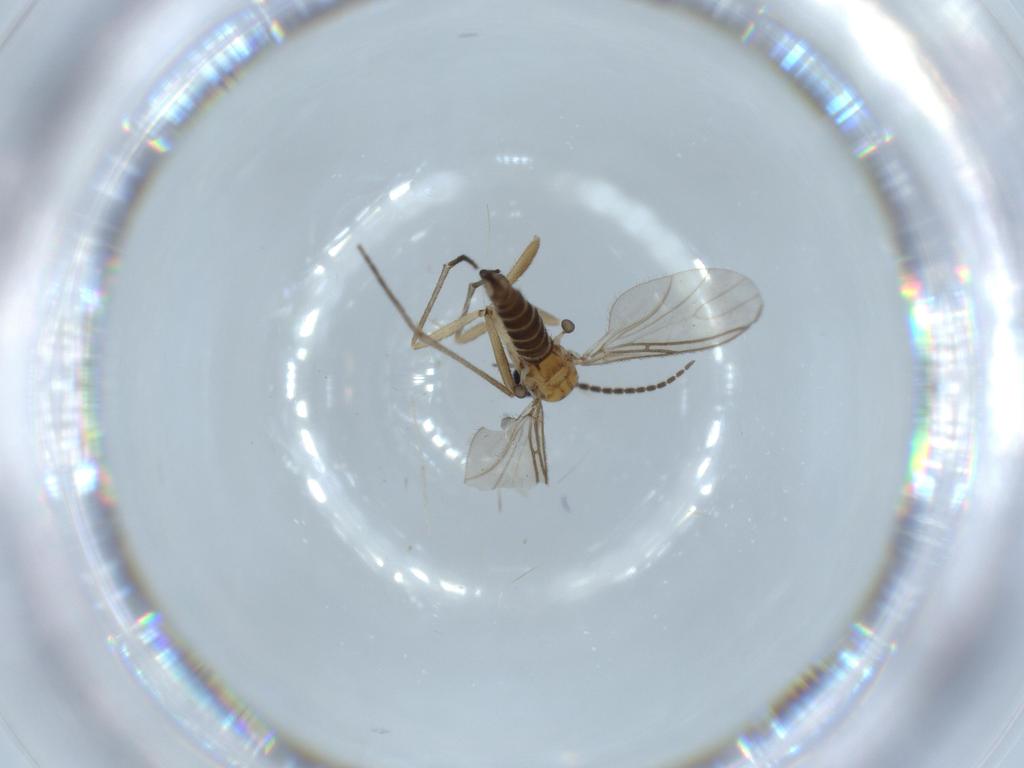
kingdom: Animalia
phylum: Arthropoda
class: Insecta
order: Diptera
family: Sciaridae
